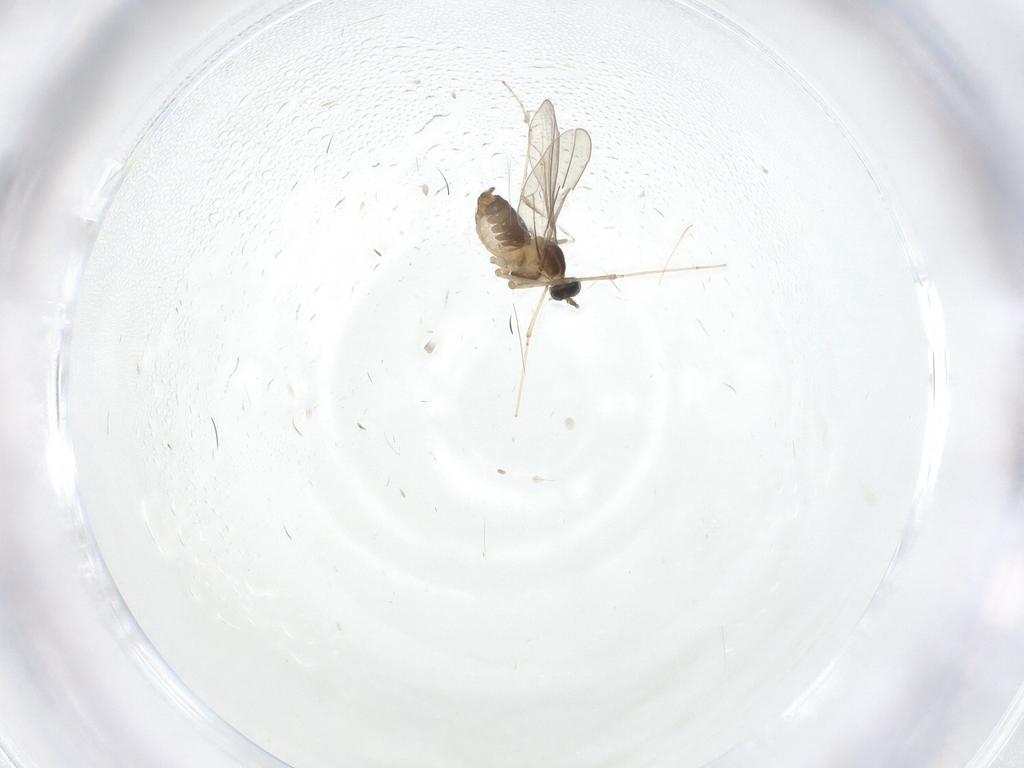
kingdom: Animalia
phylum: Arthropoda
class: Insecta
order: Diptera
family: Cecidomyiidae
